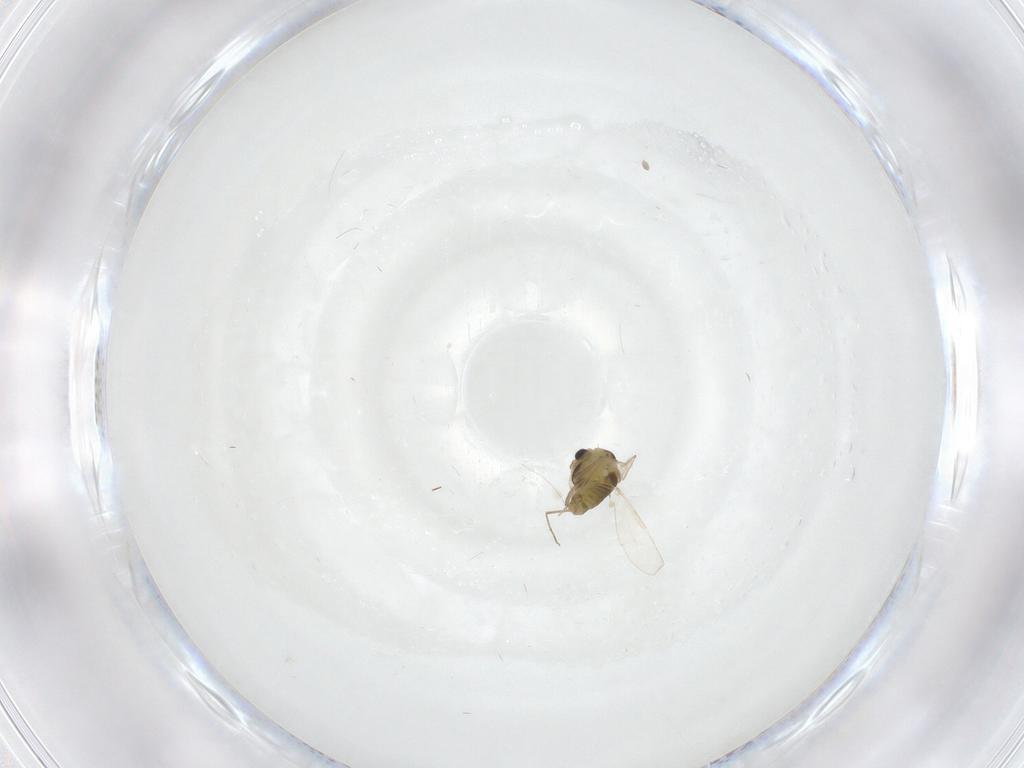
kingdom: Animalia
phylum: Arthropoda
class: Insecta
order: Diptera
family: Chironomidae
